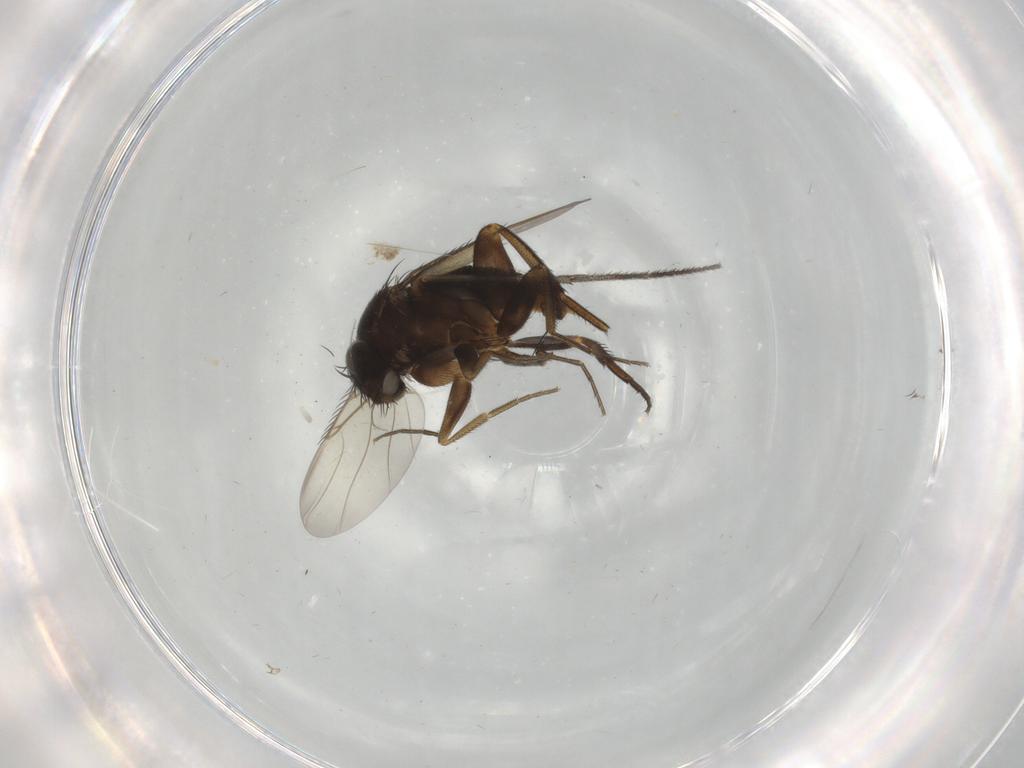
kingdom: Animalia
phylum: Arthropoda
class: Insecta
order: Diptera
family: Phoridae
